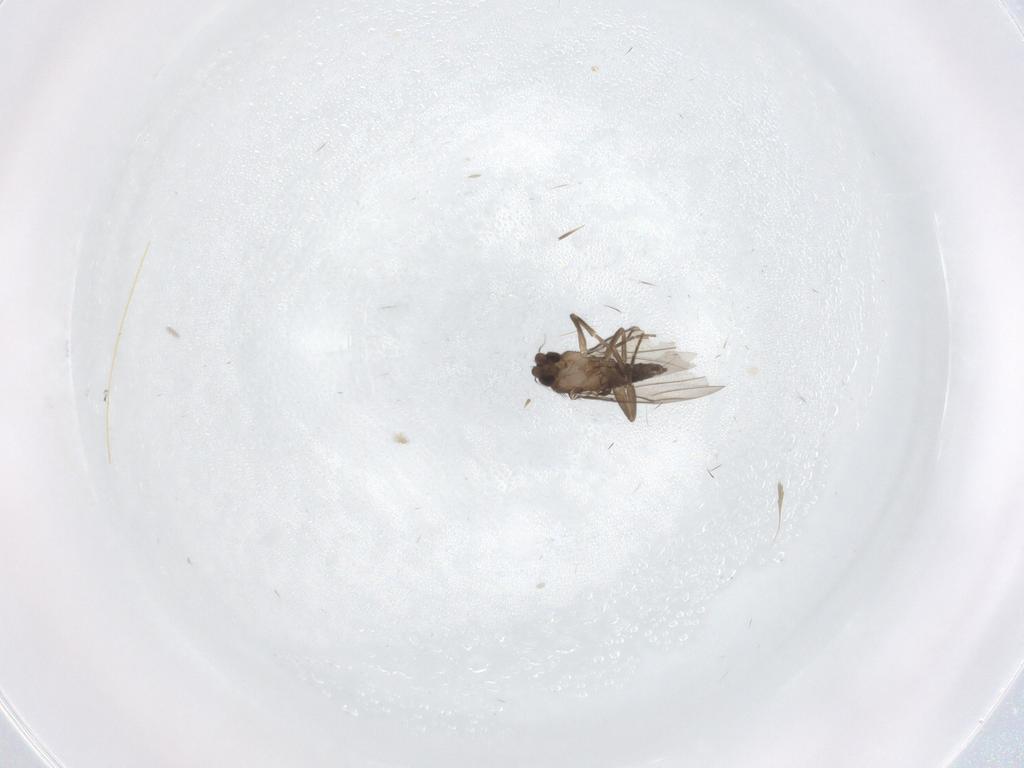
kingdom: Animalia
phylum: Arthropoda
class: Insecta
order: Diptera
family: Phoridae
